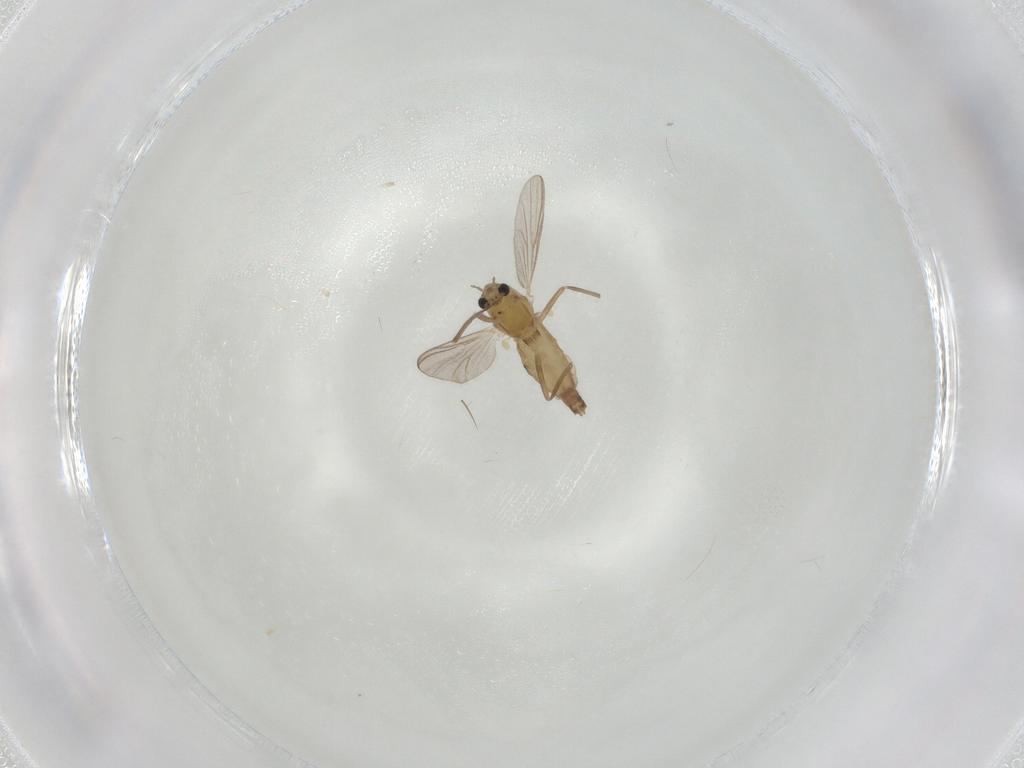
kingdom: Animalia
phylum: Arthropoda
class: Insecta
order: Diptera
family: Chironomidae
